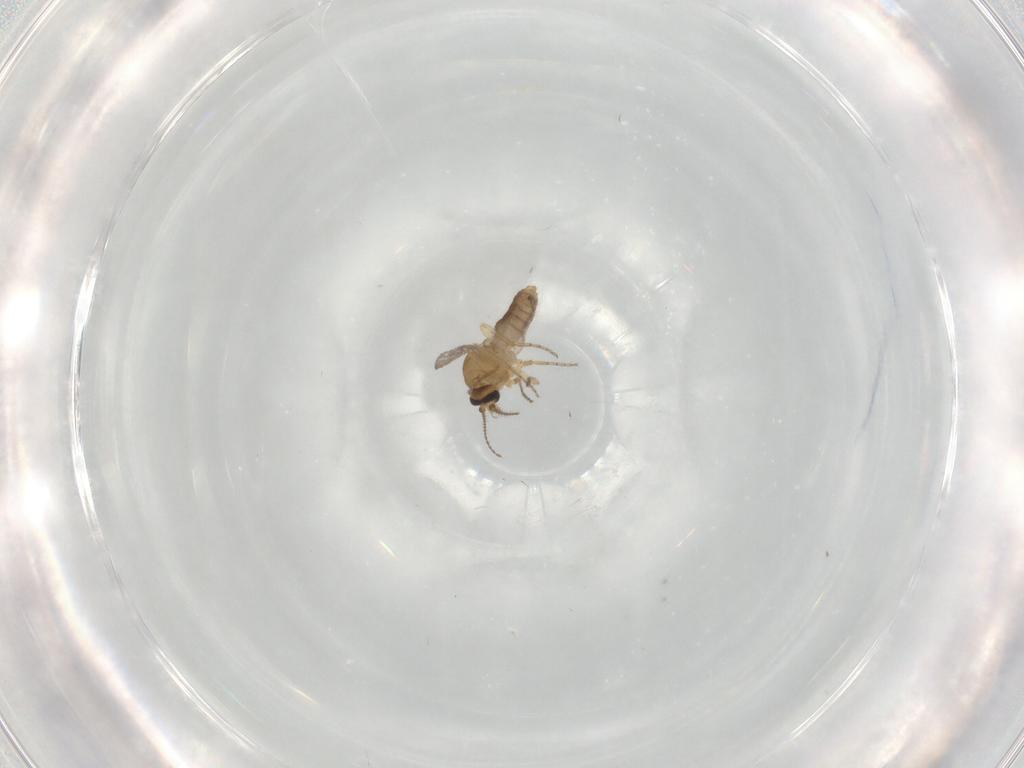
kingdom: Animalia
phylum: Arthropoda
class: Insecta
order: Diptera
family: Ceratopogonidae
